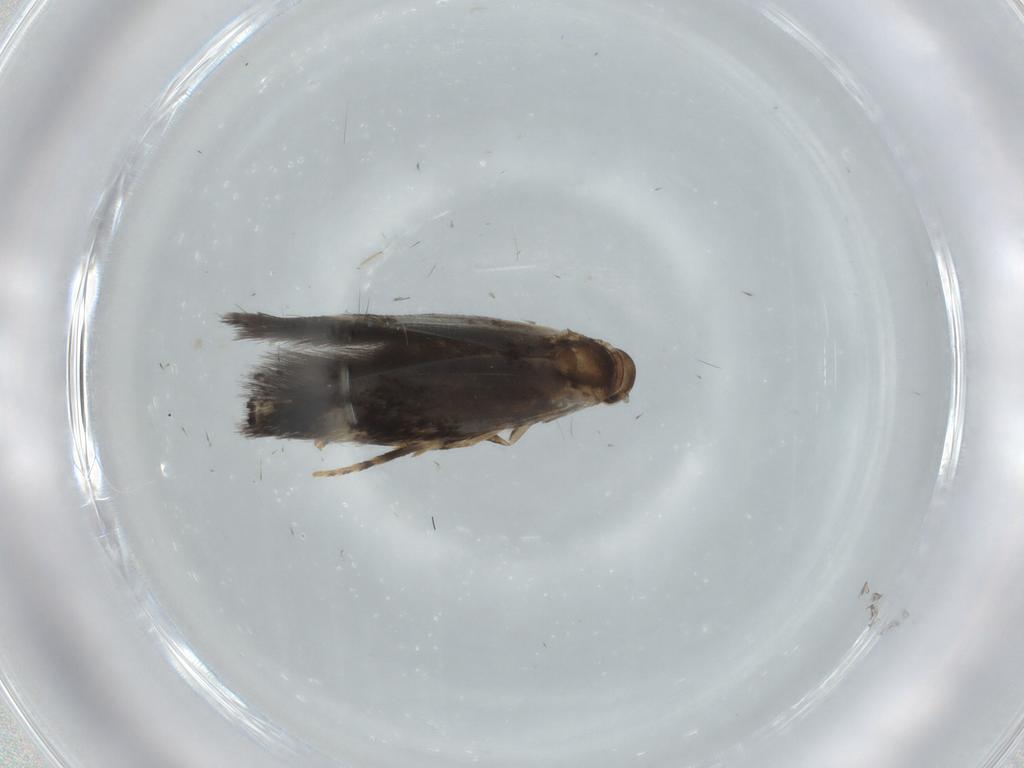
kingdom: Animalia
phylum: Arthropoda
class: Insecta
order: Lepidoptera
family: Elachistidae
